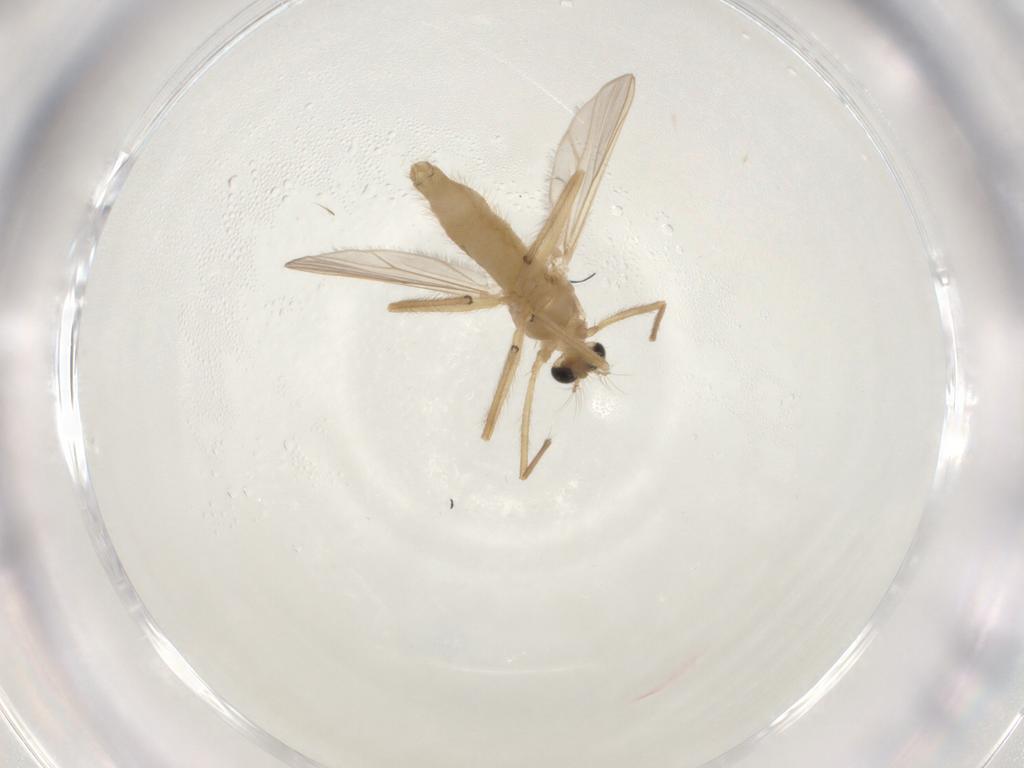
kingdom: Animalia
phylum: Arthropoda
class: Insecta
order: Diptera
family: Chironomidae
